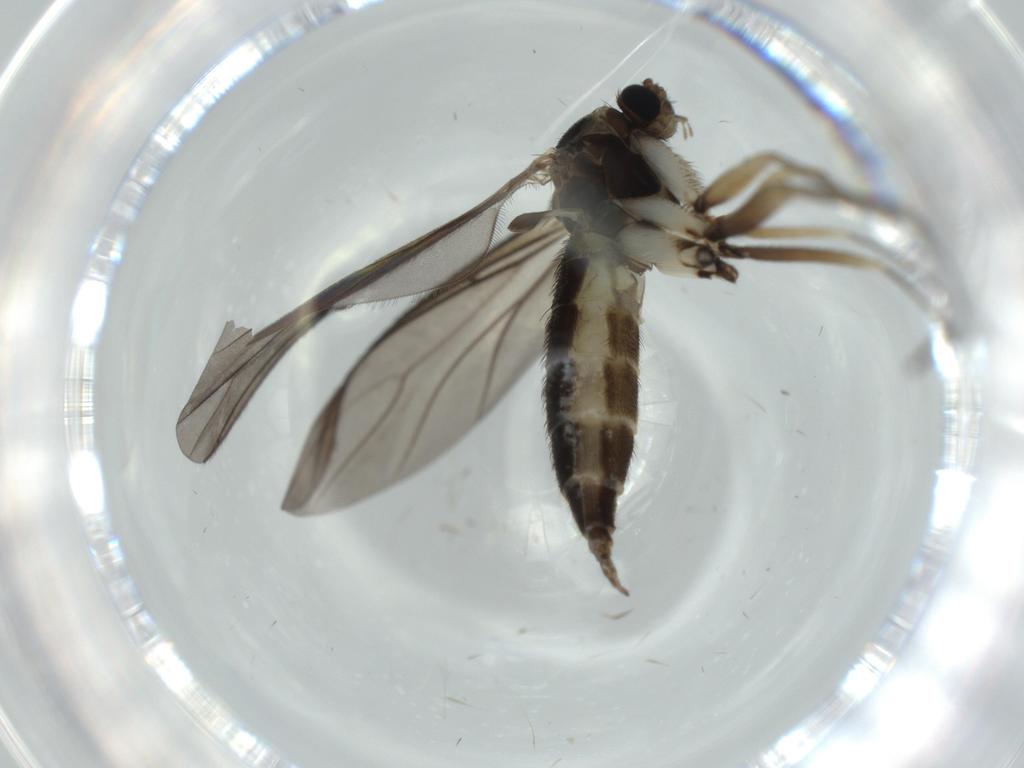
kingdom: Animalia
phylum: Arthropoda
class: Insecta
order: Diptera
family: Sciaridae
